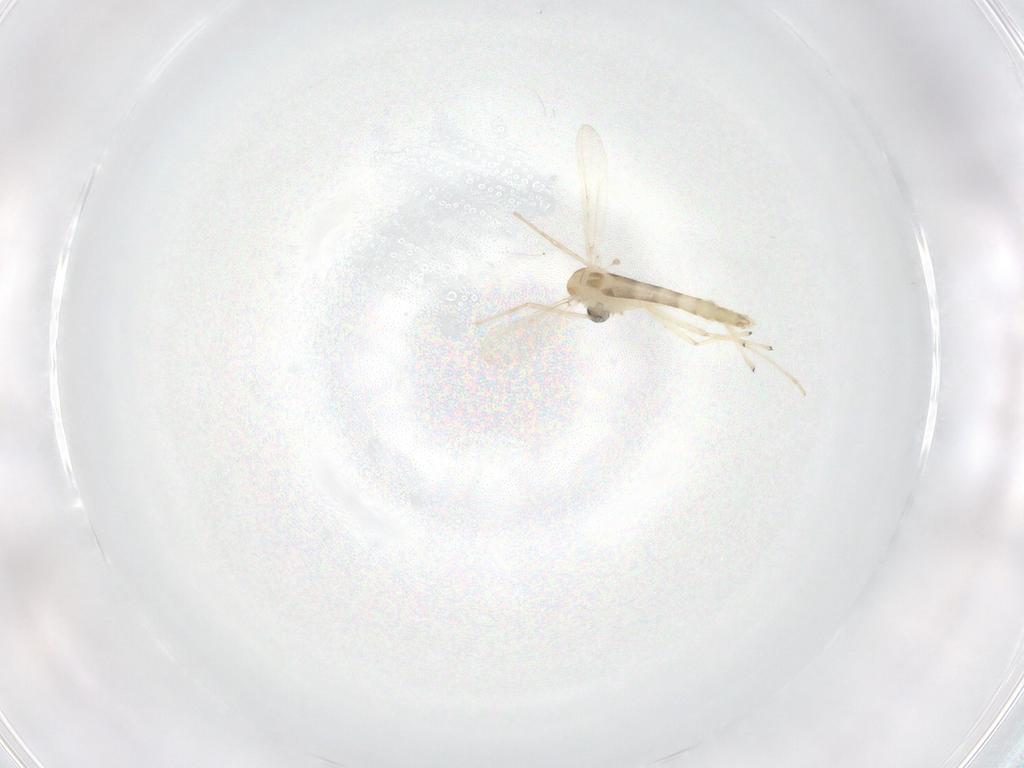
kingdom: Animalia
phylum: Arthropoda
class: Insecta
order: Diptera
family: Chironomidae
